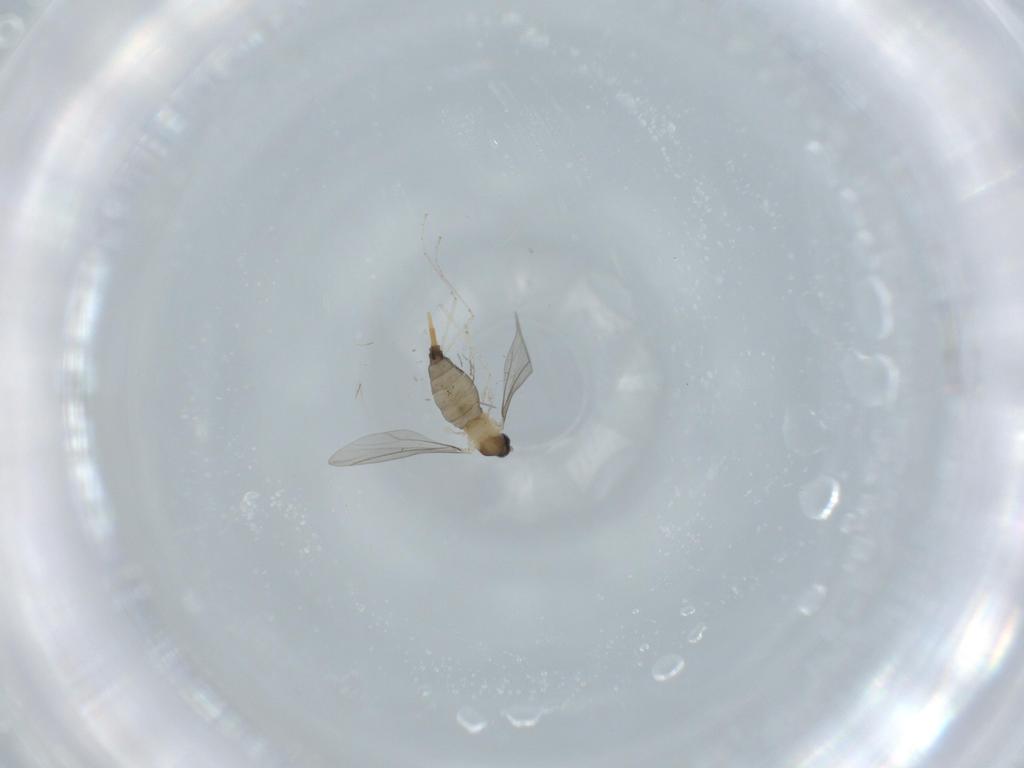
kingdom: Animalia
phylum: Arthropoda
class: Insecta
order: Diptera
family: Cecidomyiidae
